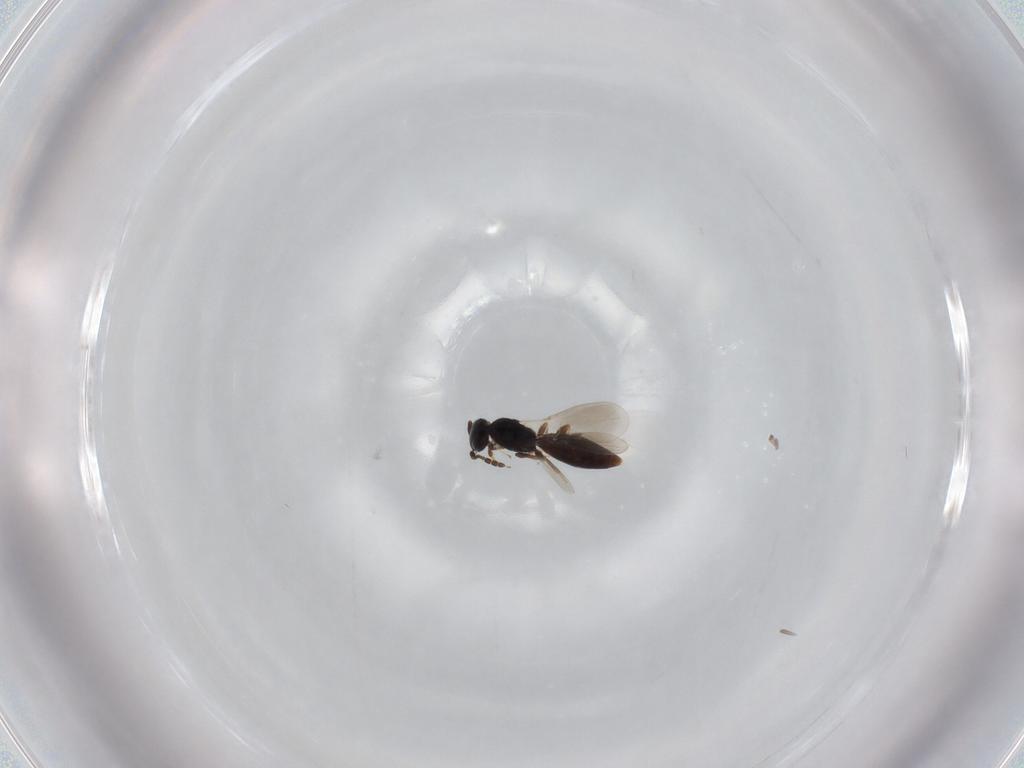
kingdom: Animalia
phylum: Arthropoda
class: Insecta
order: Hymenoptera
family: Platygastridae
